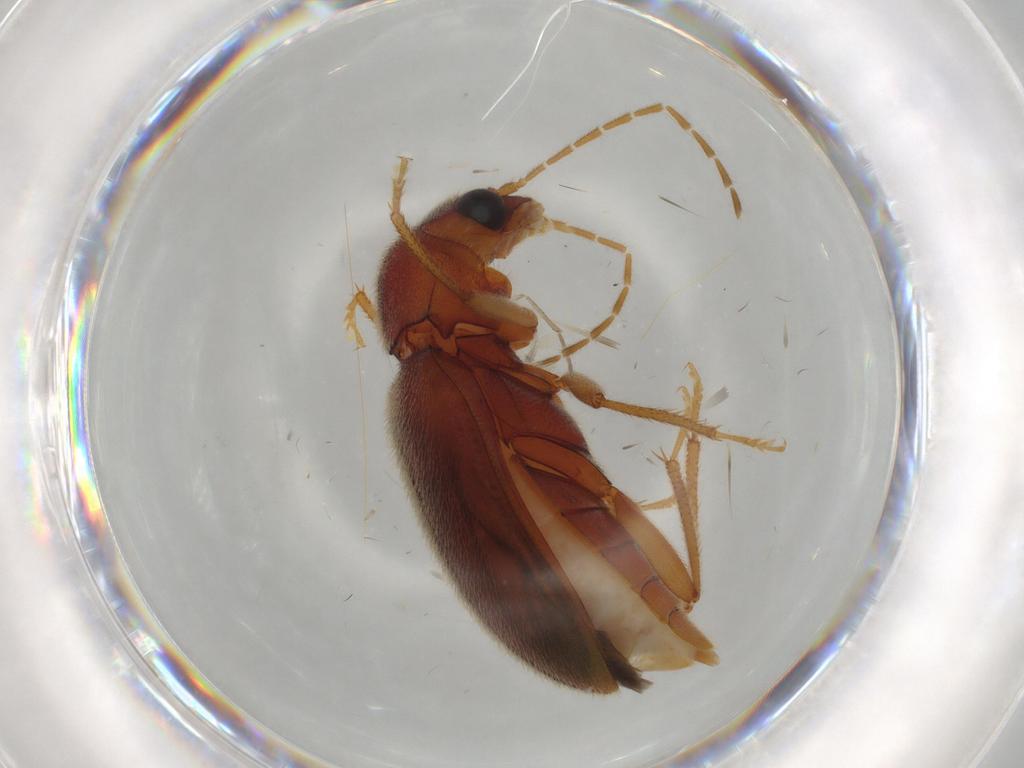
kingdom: Animalia
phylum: Arthropoda
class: Insecta
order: Coleoptera
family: Ptilodactylidae
